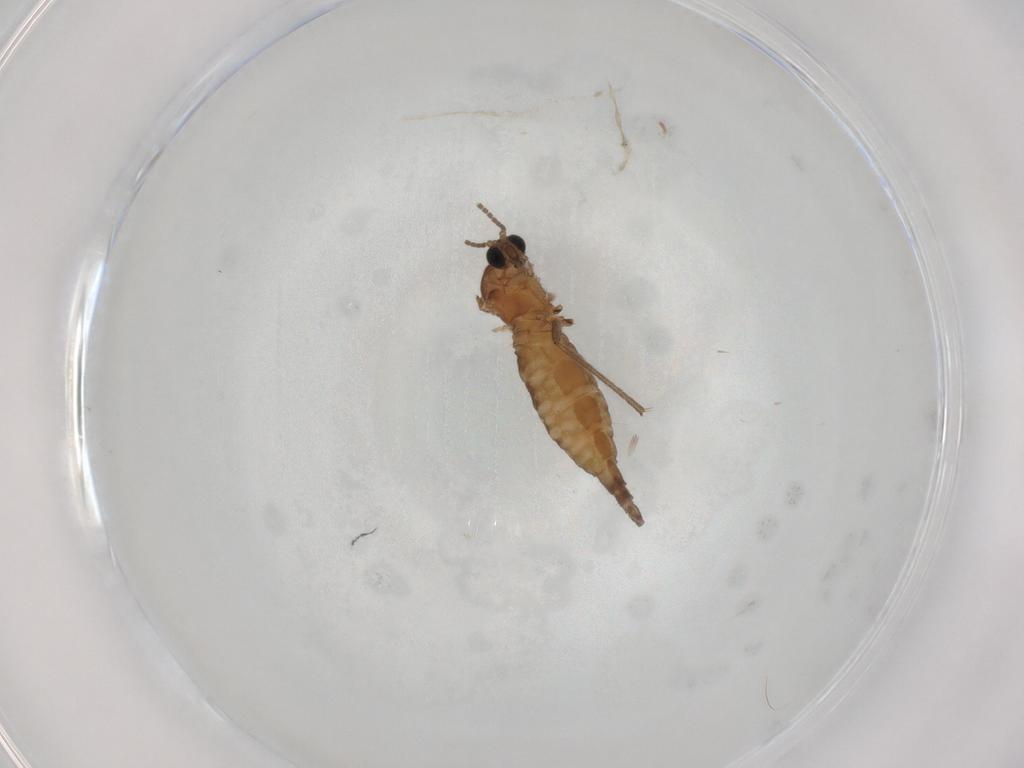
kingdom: Animalia
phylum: Arthropoda
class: Insecta
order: Diptera
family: Sciaridae
